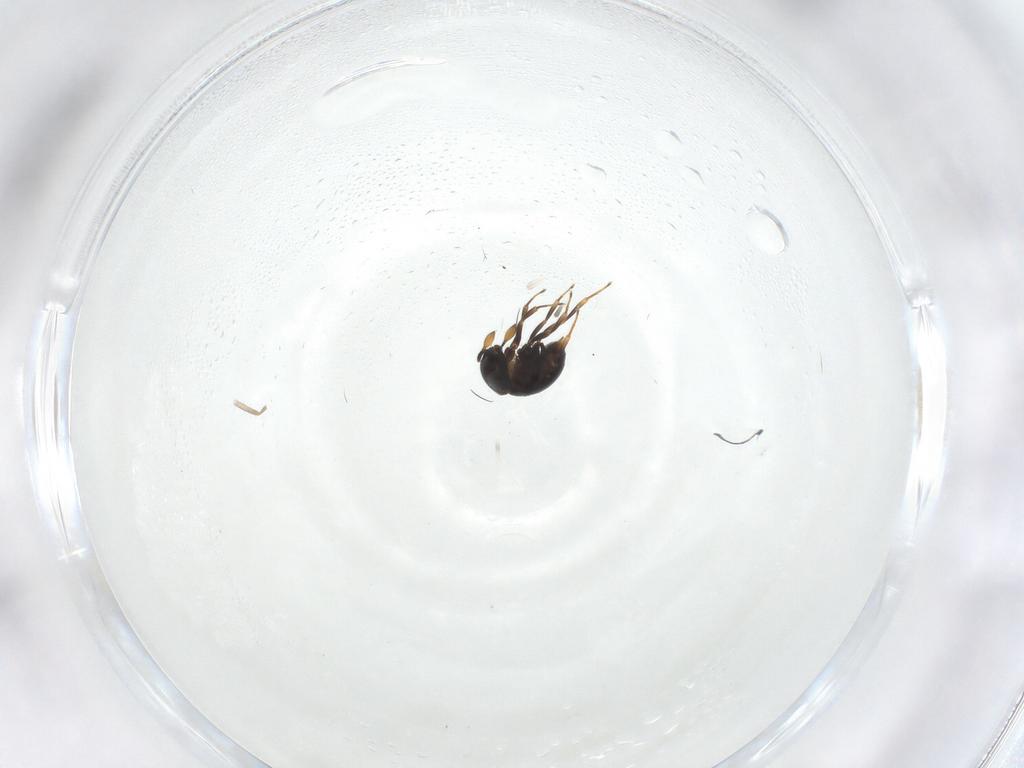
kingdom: Animalia
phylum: Arthropoda
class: Insecta
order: Hymenoptera
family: Scelionidae
